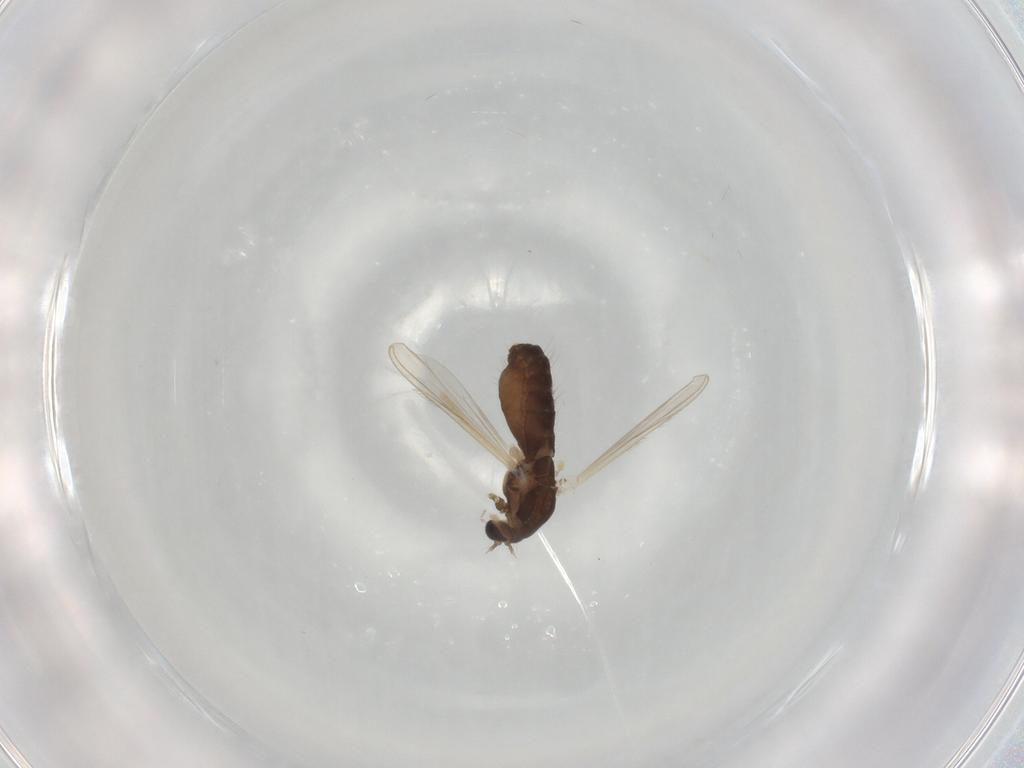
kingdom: Animalia
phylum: Arthropoda
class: Insecta
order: Diptera
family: Chironomidae
